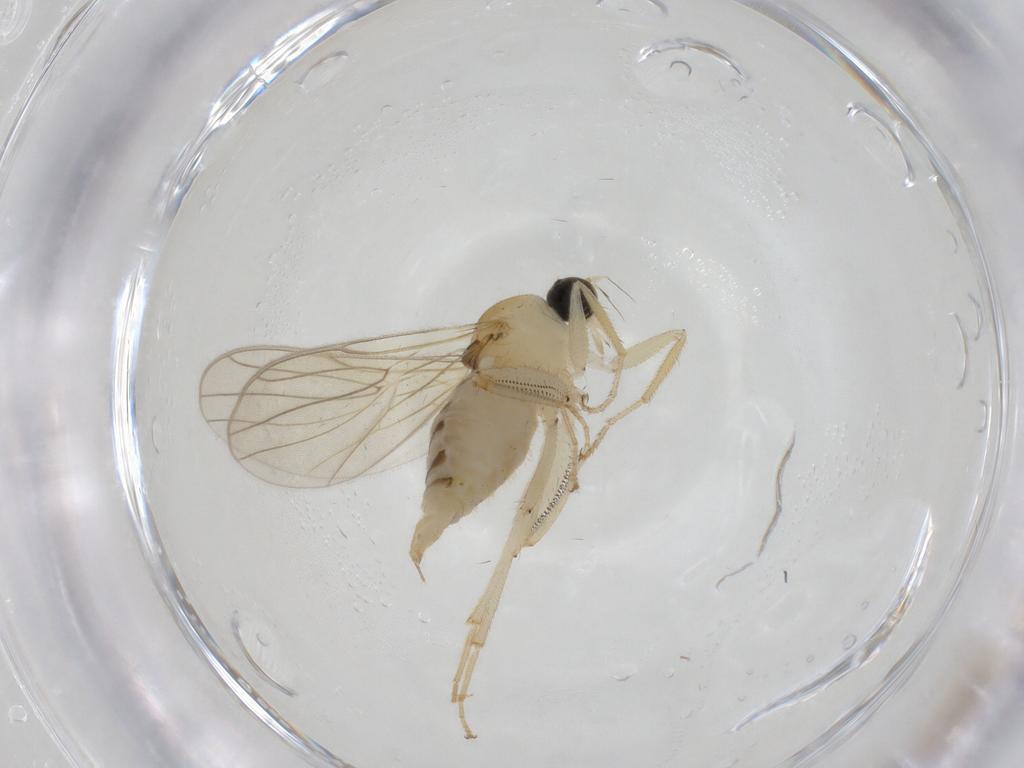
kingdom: Animalia
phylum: Arthropoda
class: Insecta
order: Diptera
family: Hybotidae
